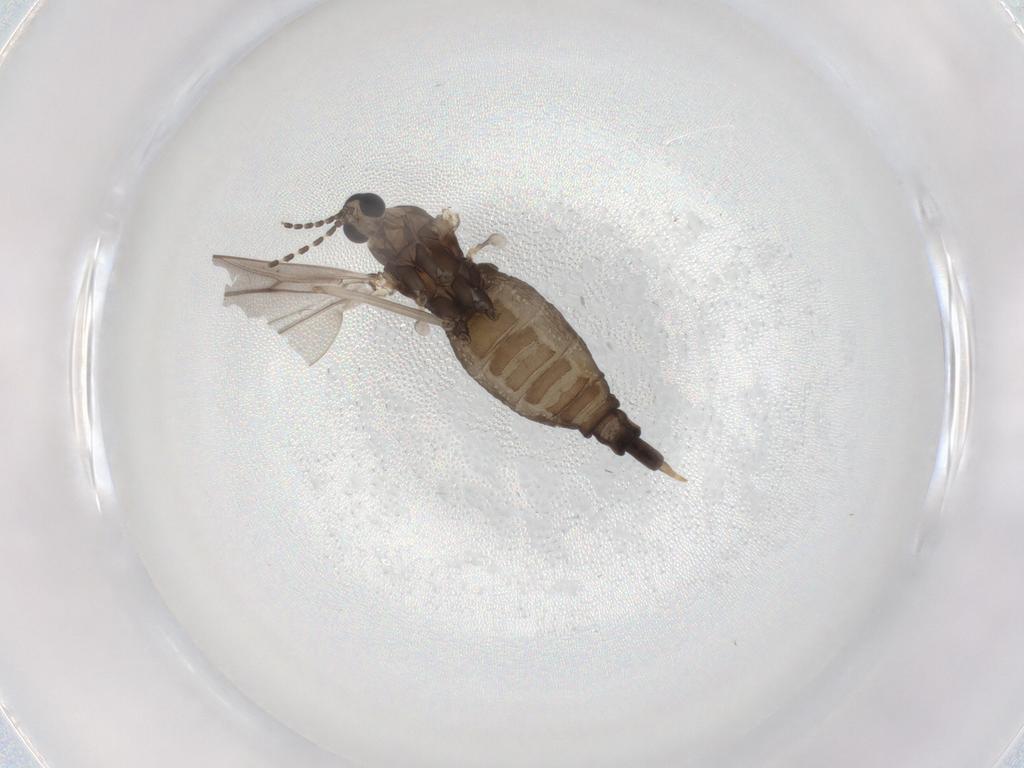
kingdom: Animalia
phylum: Arthropoda
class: Insecta
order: Diptera
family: Cecidomyiidae
